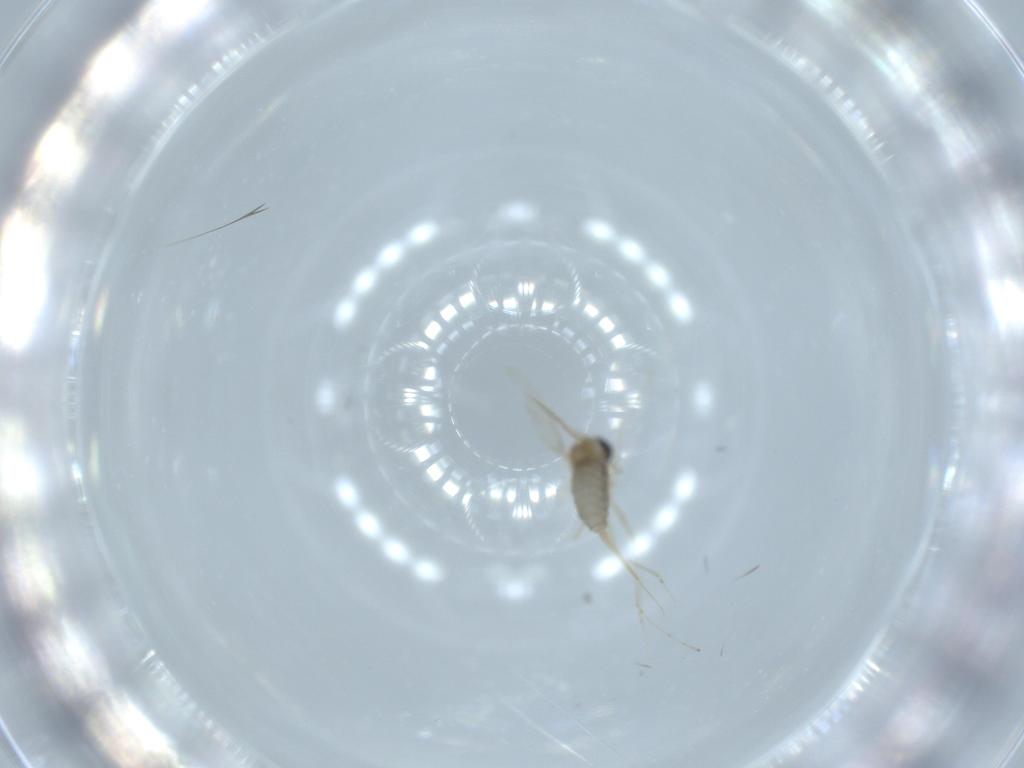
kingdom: Animalia
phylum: Arthropoda
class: Insecta
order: Diptera
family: Cecidomyiidae
